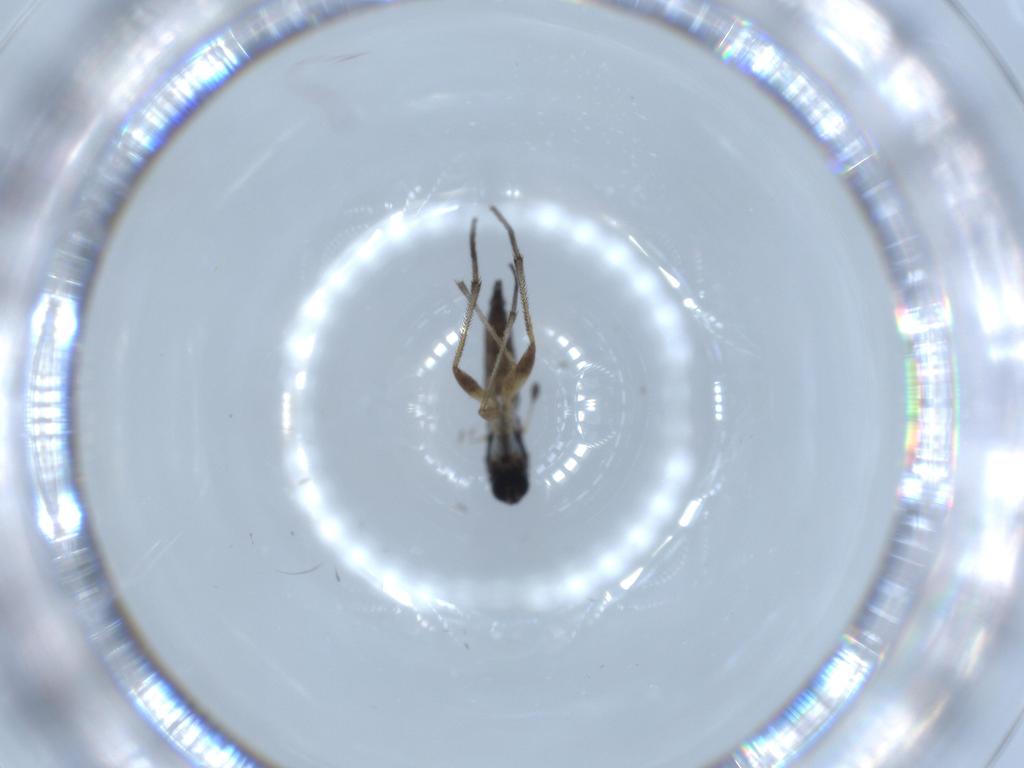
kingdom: Animalia
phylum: Arthropoda
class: Insecta
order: Diptera
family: Sciaridae
